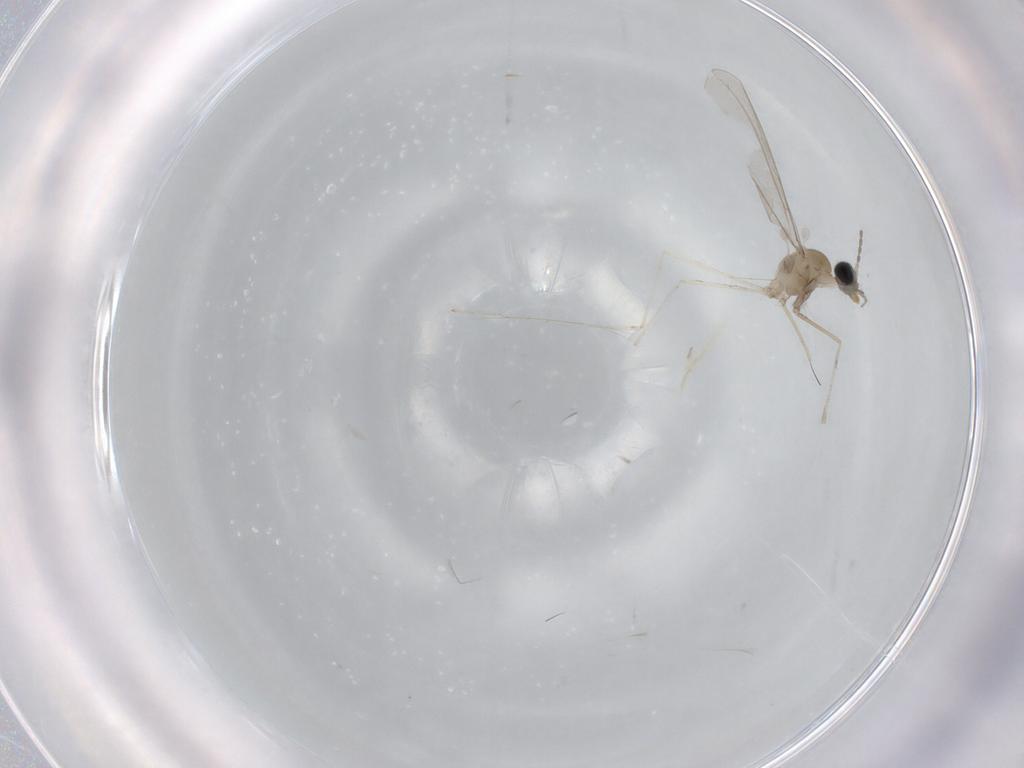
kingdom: Animalia
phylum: Arthropoda
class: Insecta
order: Diptera
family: Cecidomyiidae
